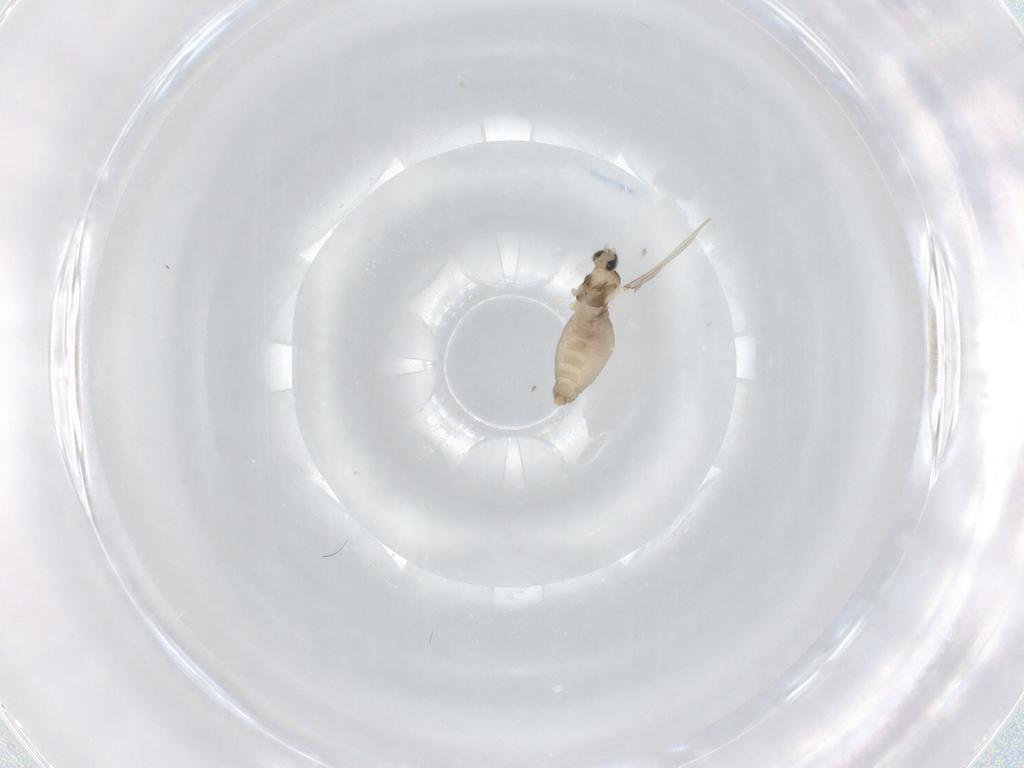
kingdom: Animalia
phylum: Arthropoda
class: Insecta
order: Diptera
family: Cecidomyiidae
